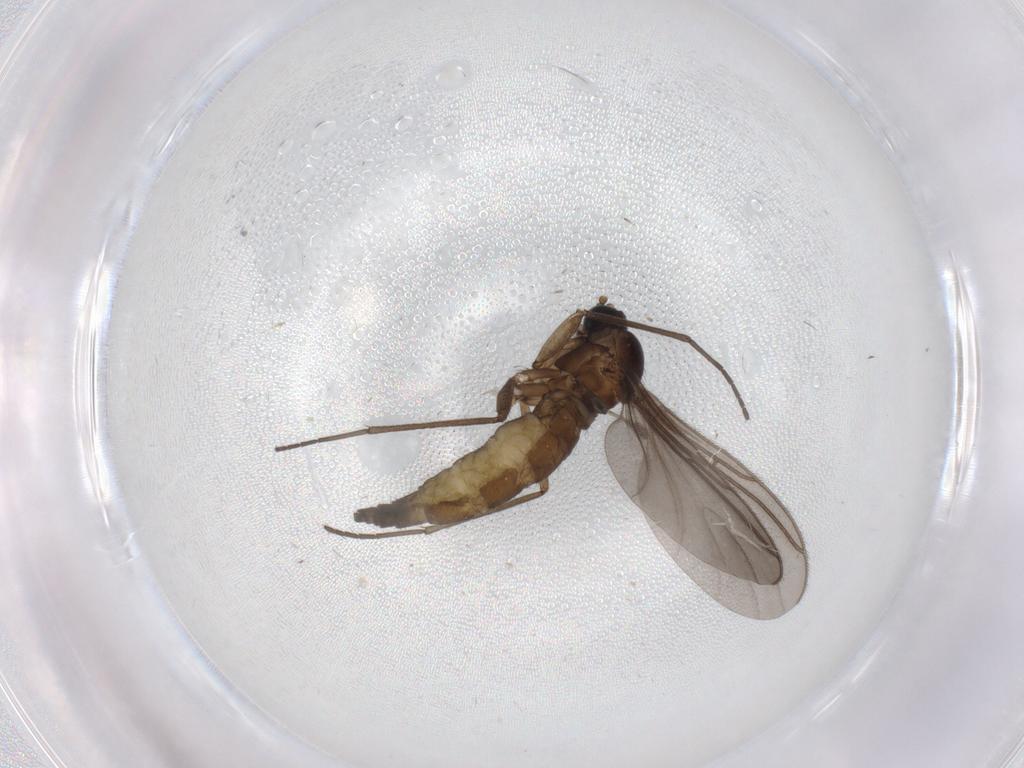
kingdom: Animalia
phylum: Arthropoda
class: Insecta
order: Diptera
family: Sciaridae
